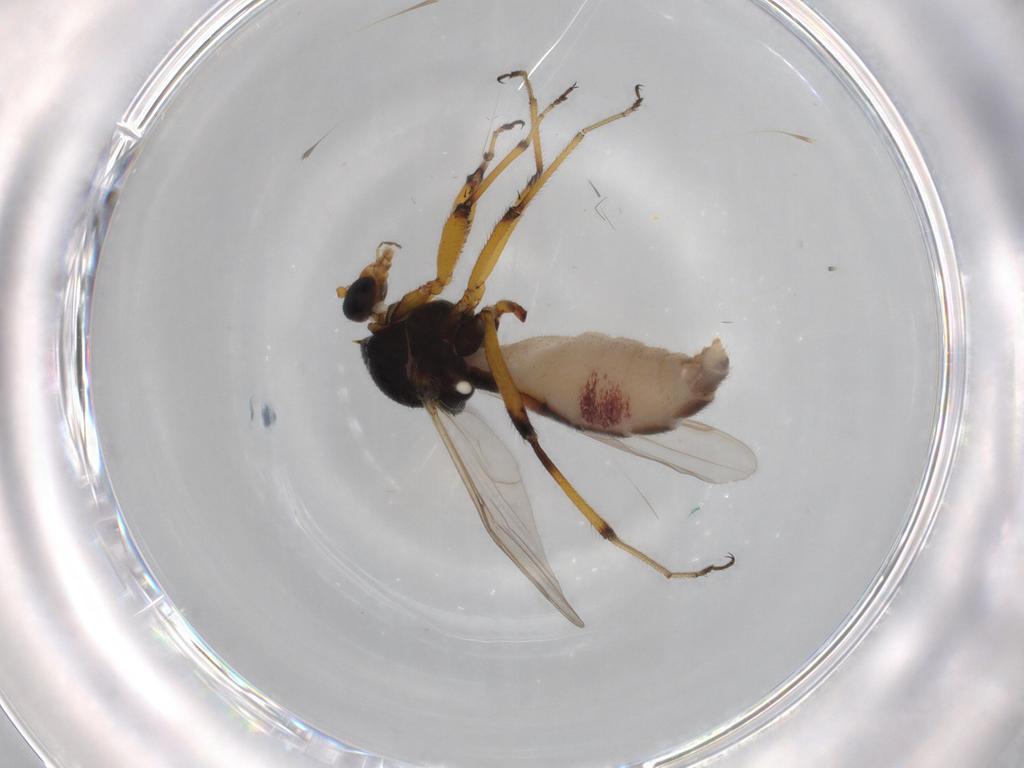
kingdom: Animalia
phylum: Arthropoda
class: Insecta
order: Diptera
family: Ceratopogonidae
